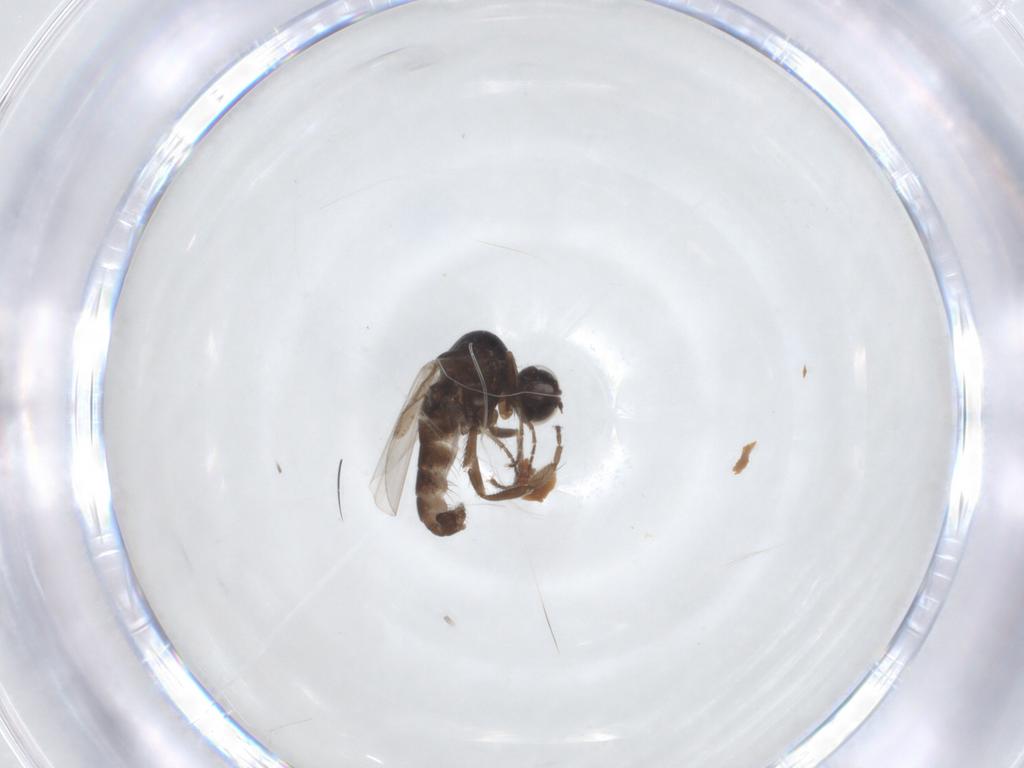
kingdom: Animalia
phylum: Arthropoda
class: Insecta
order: Diptera
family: Platypezidae
